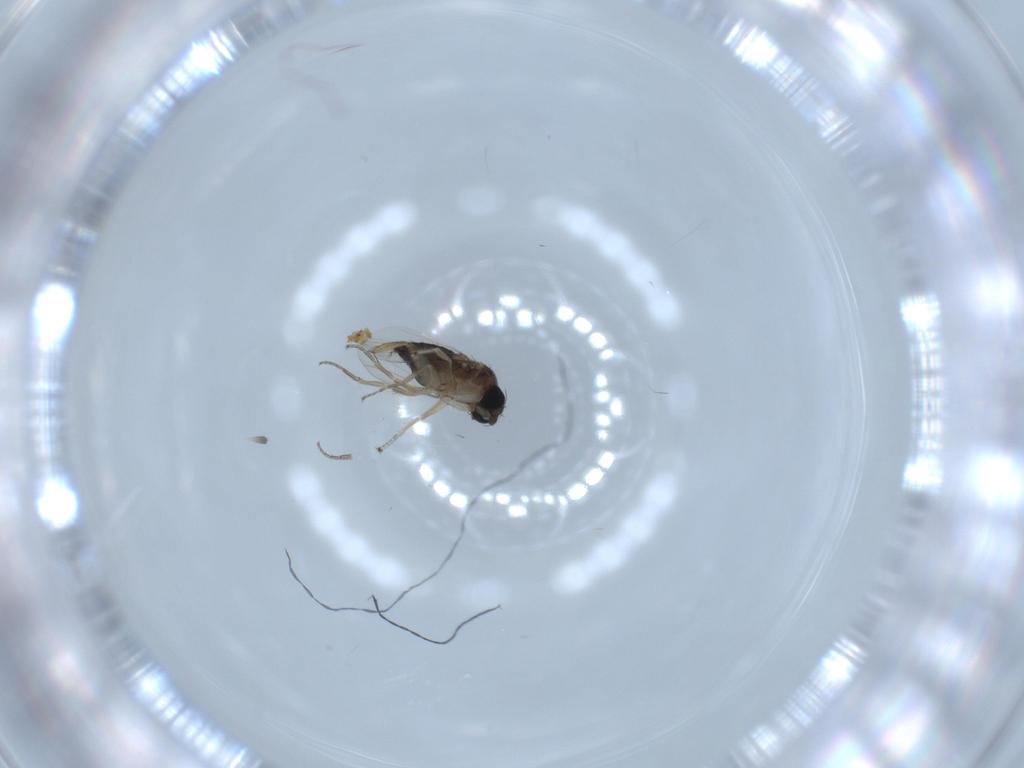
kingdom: Animalia
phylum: Arthropoda
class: Insecta
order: Diptera
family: Phoridae
